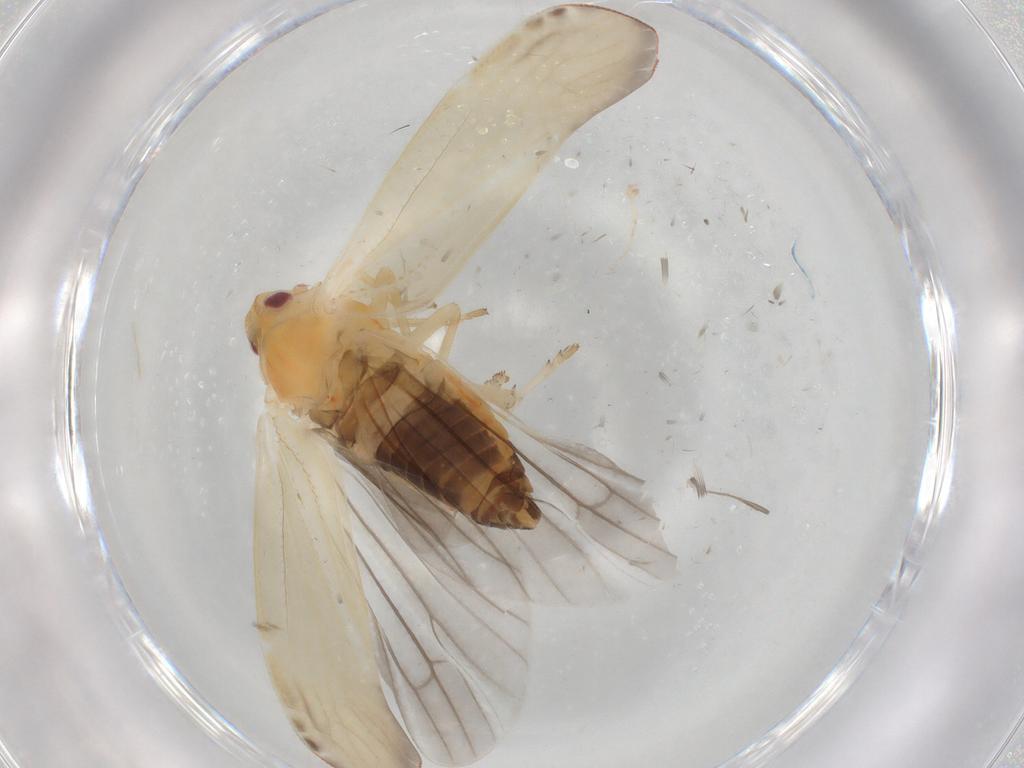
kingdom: Animalia
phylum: Arthropoda
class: Insecta
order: Hemiptera
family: Derbidae
